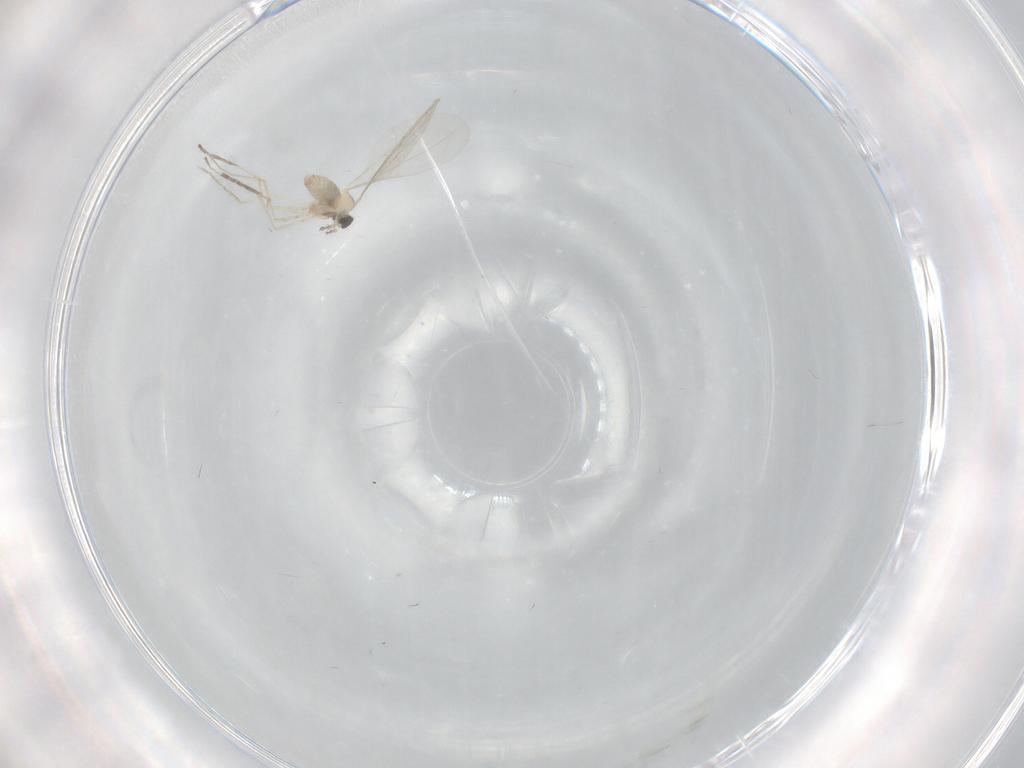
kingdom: Animalia
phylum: Arthropoda
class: Insecta
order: Diptera
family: Cecidomyiidae
